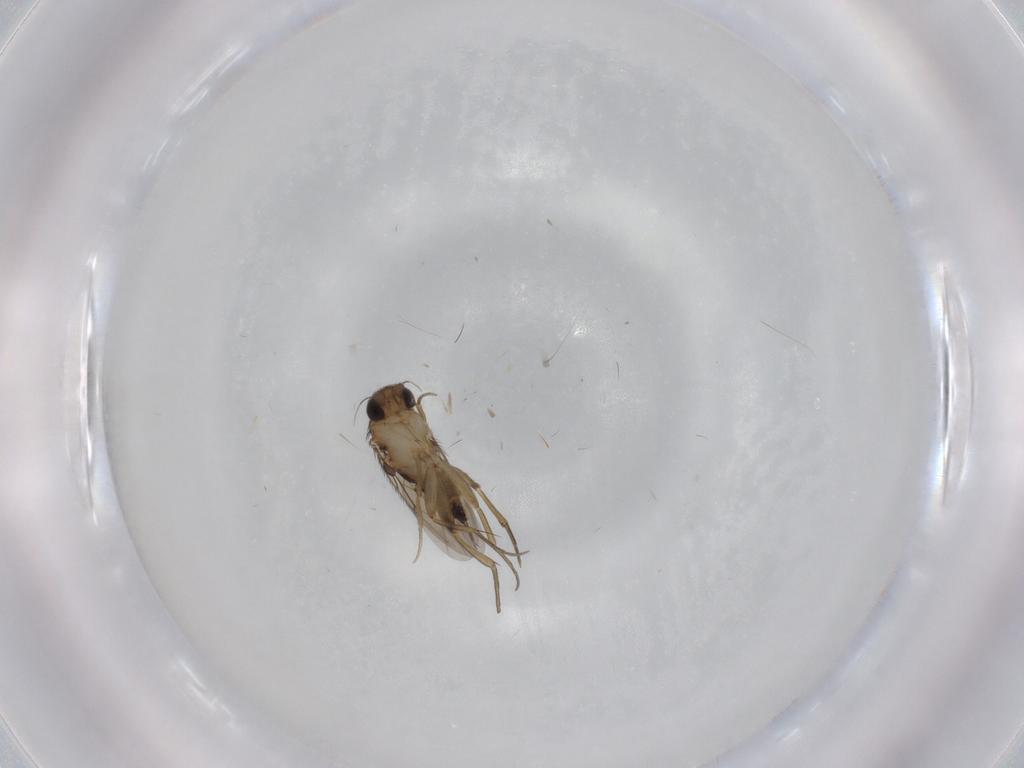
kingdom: Animalia
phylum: Arthropoda
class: Insecta
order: Diptera
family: Phoridae
